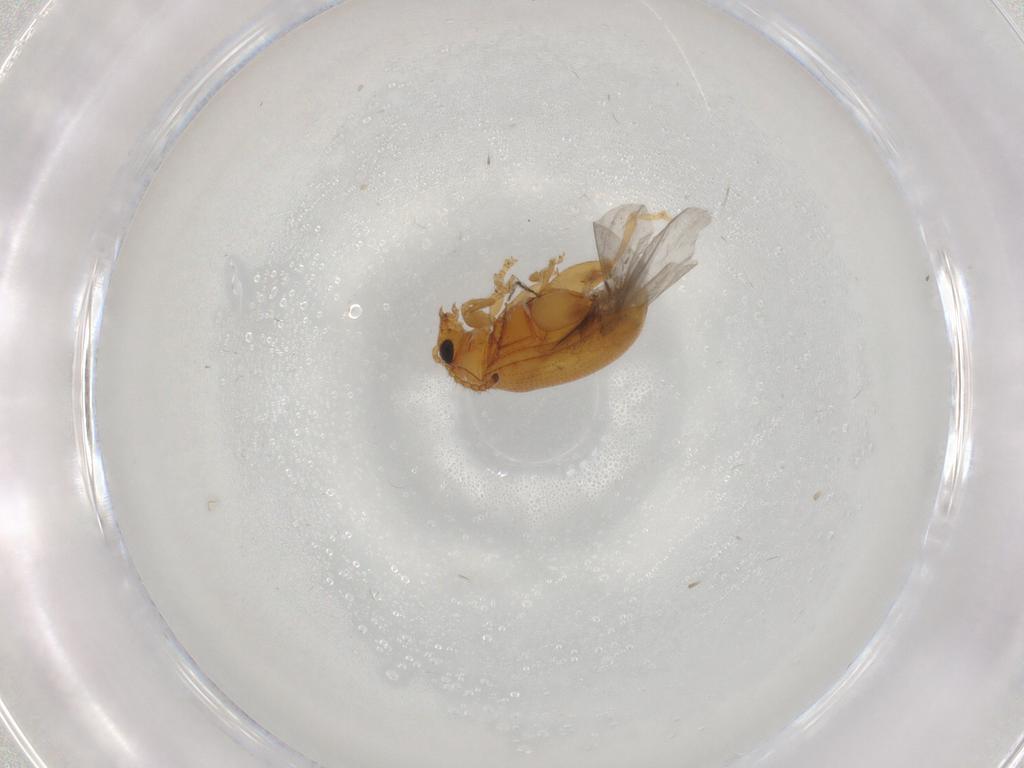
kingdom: Animalia
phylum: Arthropoda
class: Insecta
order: Coleoptera
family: Chrysomelidae
